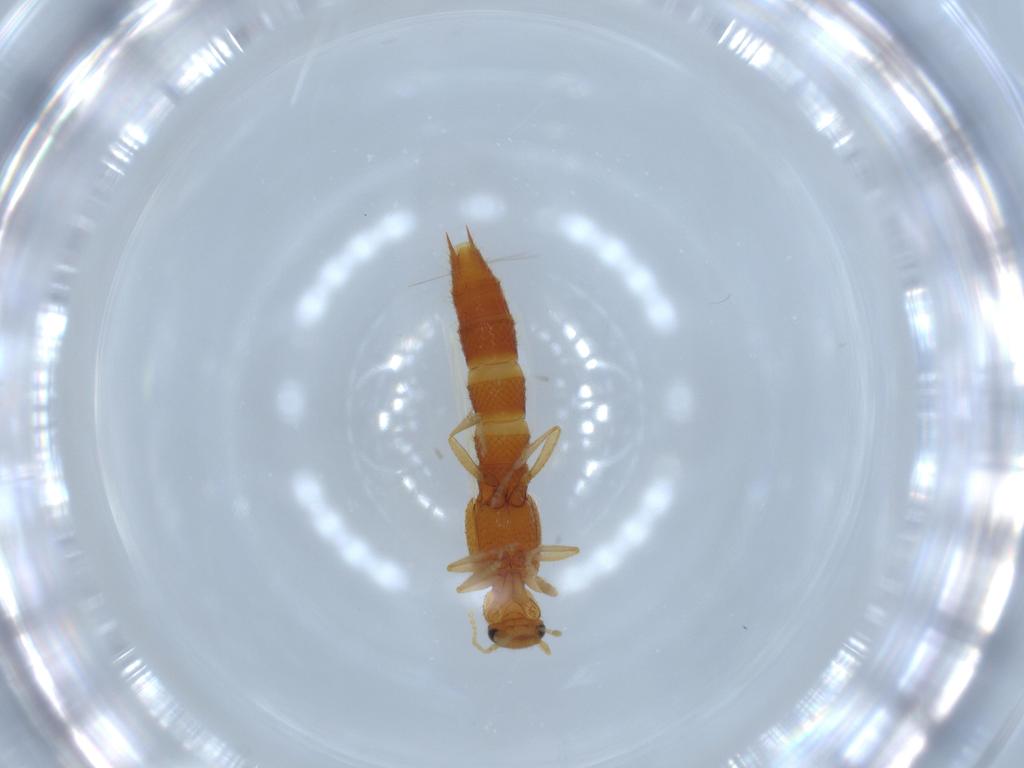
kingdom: Animalia
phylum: Arthropoda
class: Insecta
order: Coleoptera
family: Staphylinidae
